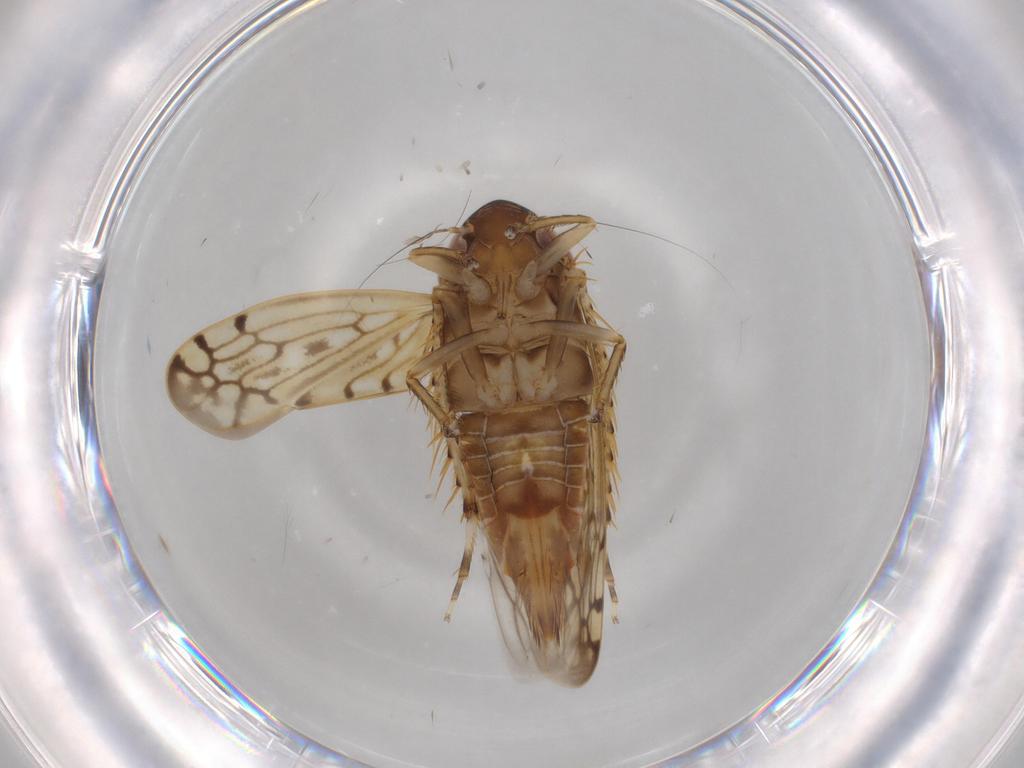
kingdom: Animalia
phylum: Arthropoda
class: Insecta
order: Hemiptera
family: Cicadellidae
